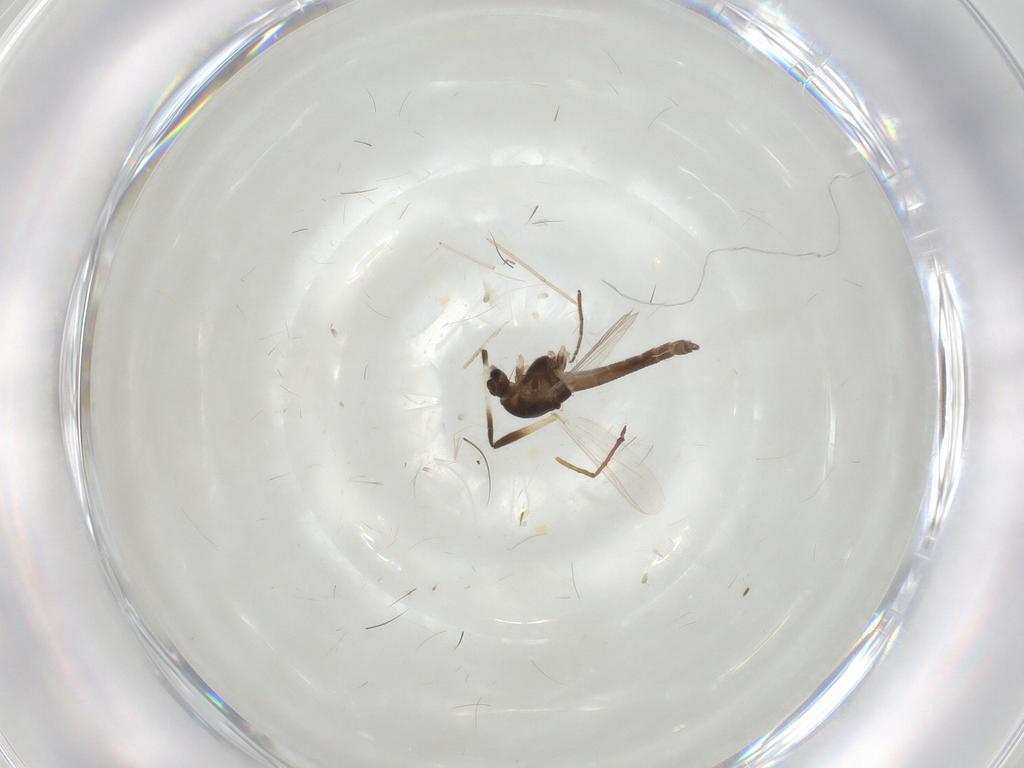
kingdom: Animalia
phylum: Arthropoda
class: Insecta
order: Diptera
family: Chironomidae
